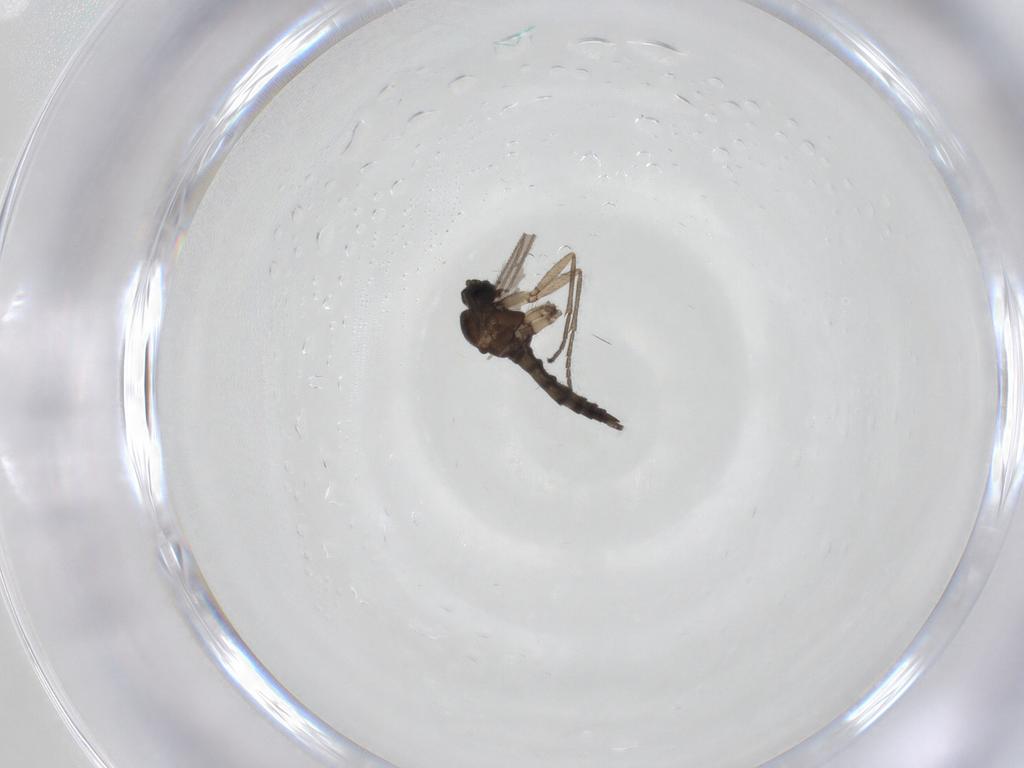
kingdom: Animalia
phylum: Arthropoda
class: Insecta
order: Diptera
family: Sciaridae
